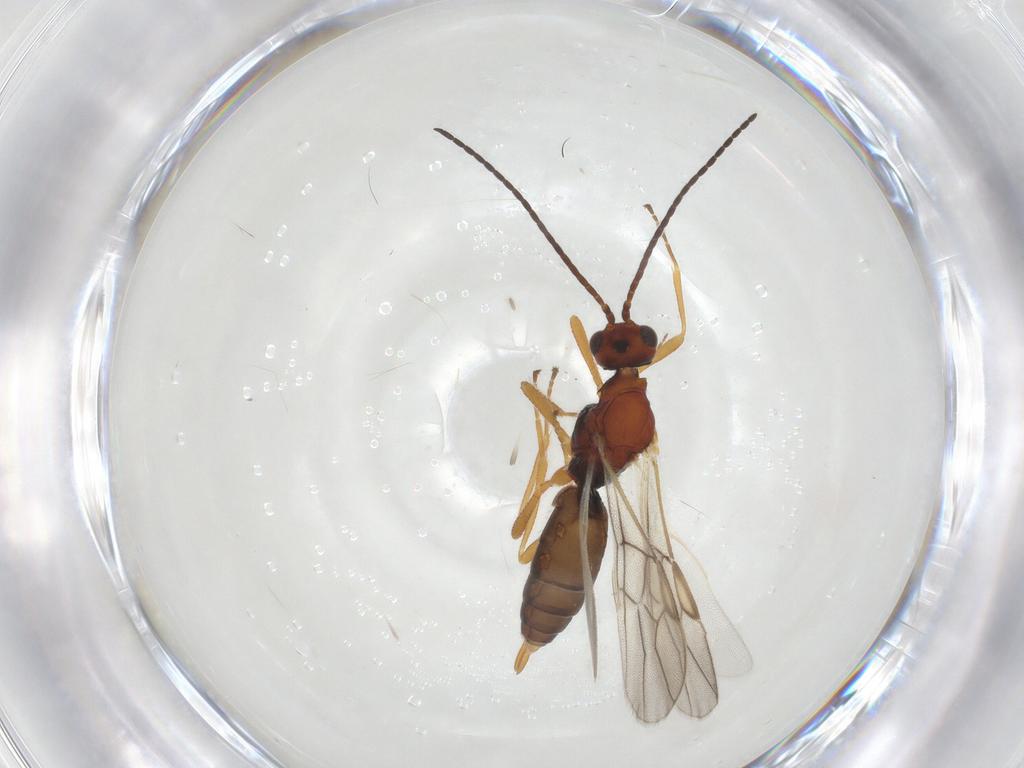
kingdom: Animalia
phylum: Arthropoda
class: Insecta
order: Hymenoptera
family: Braconidae
